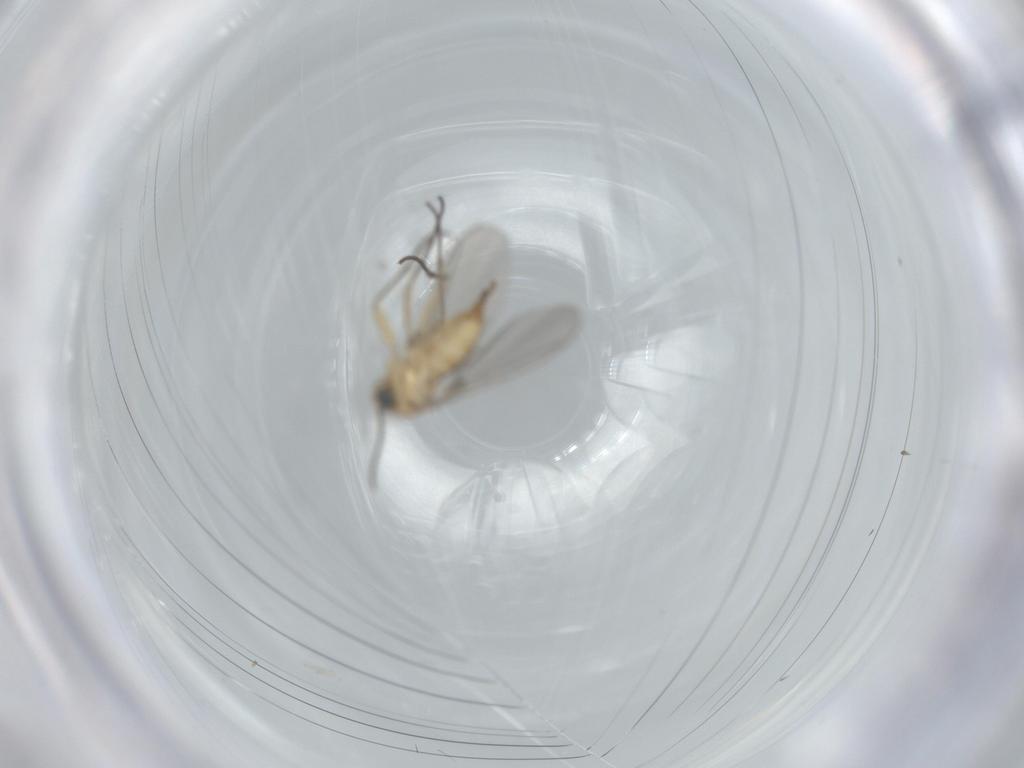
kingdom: Animalia
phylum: Arthropoda
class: Insecta
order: Diptera
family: Sciaridae
